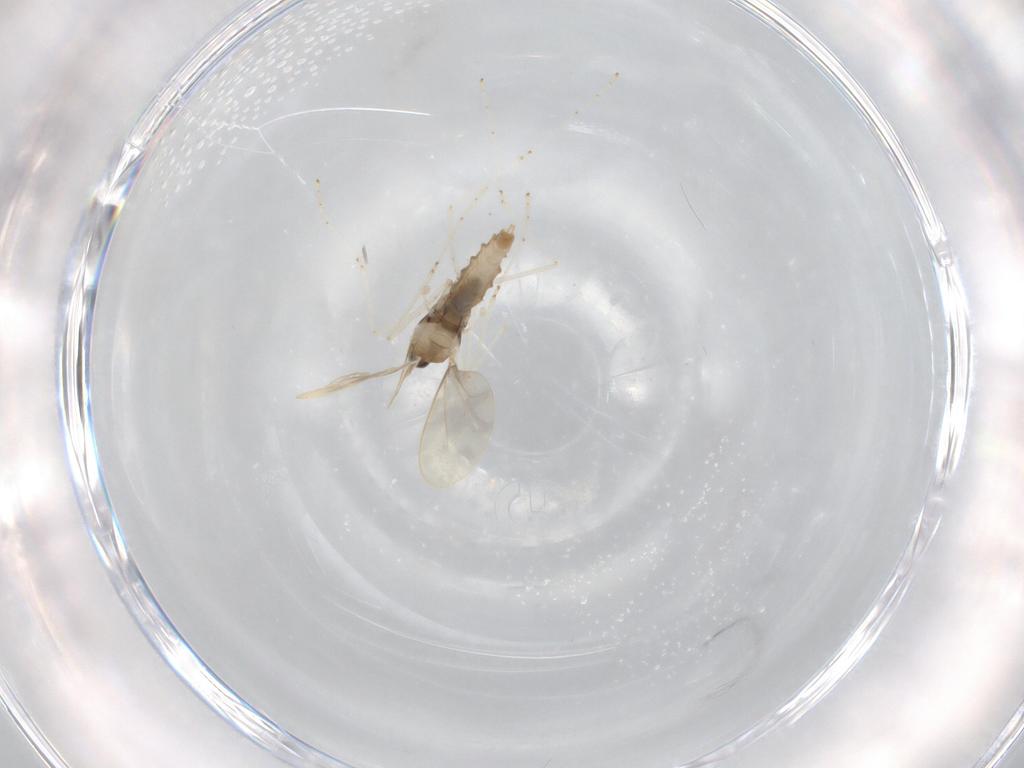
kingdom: Animalia
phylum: Arthropoda
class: Insecta
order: Diptera
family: Cecidomyiidae
